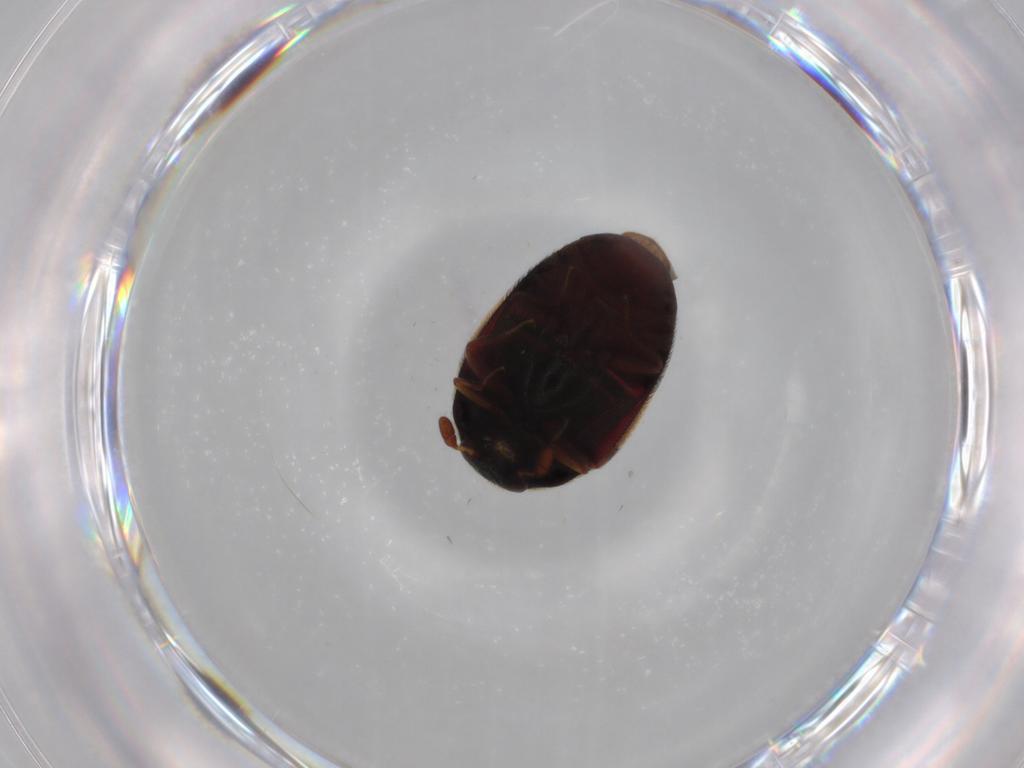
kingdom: Animalia
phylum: Arthropoda
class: Insecta
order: Coleoptera
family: Dermestidae
